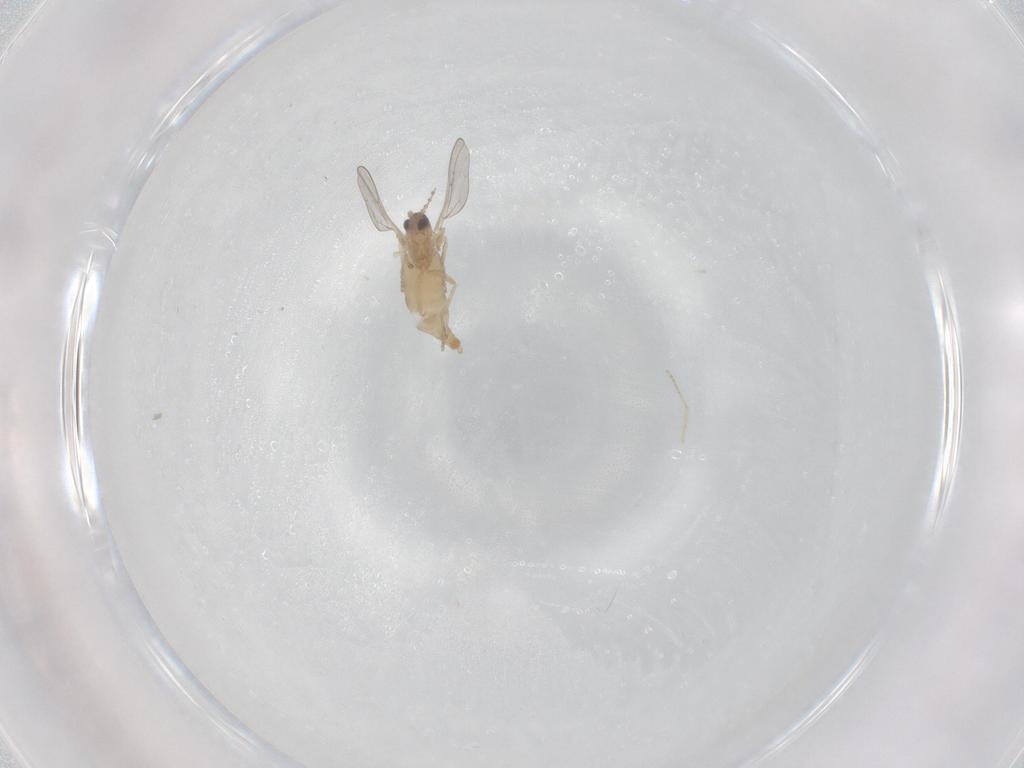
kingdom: Animalia
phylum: Arthropoda
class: Insecta
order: Diptera
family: Cecidomyiidae
